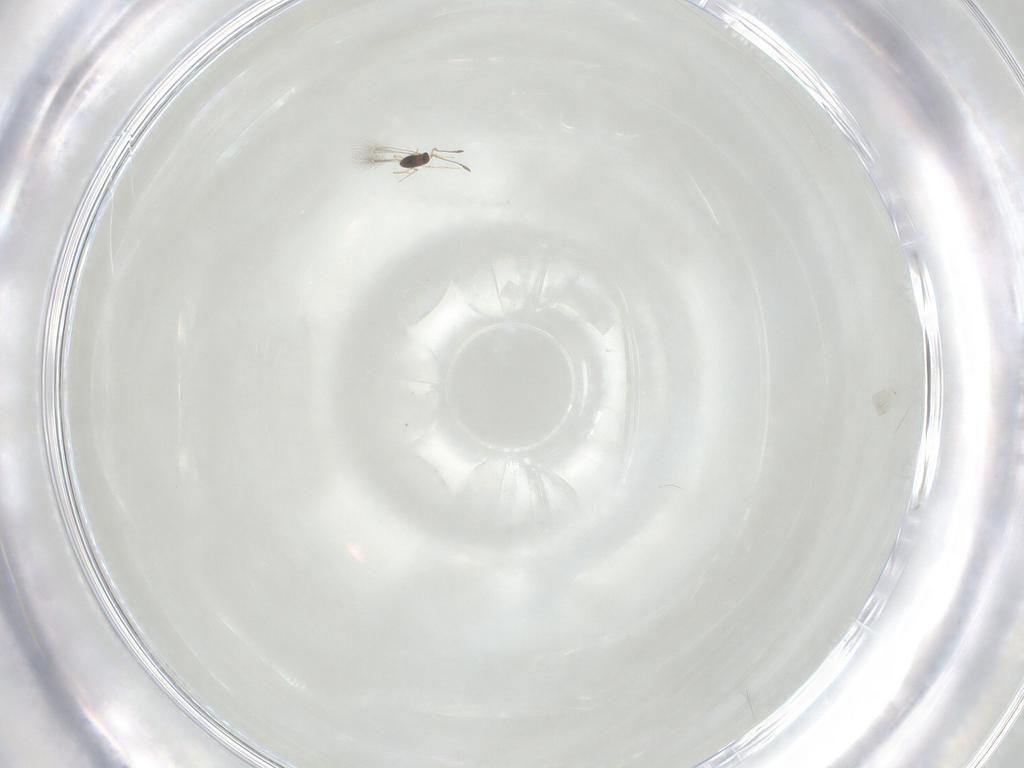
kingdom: Animalia
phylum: Arthropoda
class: Insecta
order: Hymenoptera
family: Mymaridae
